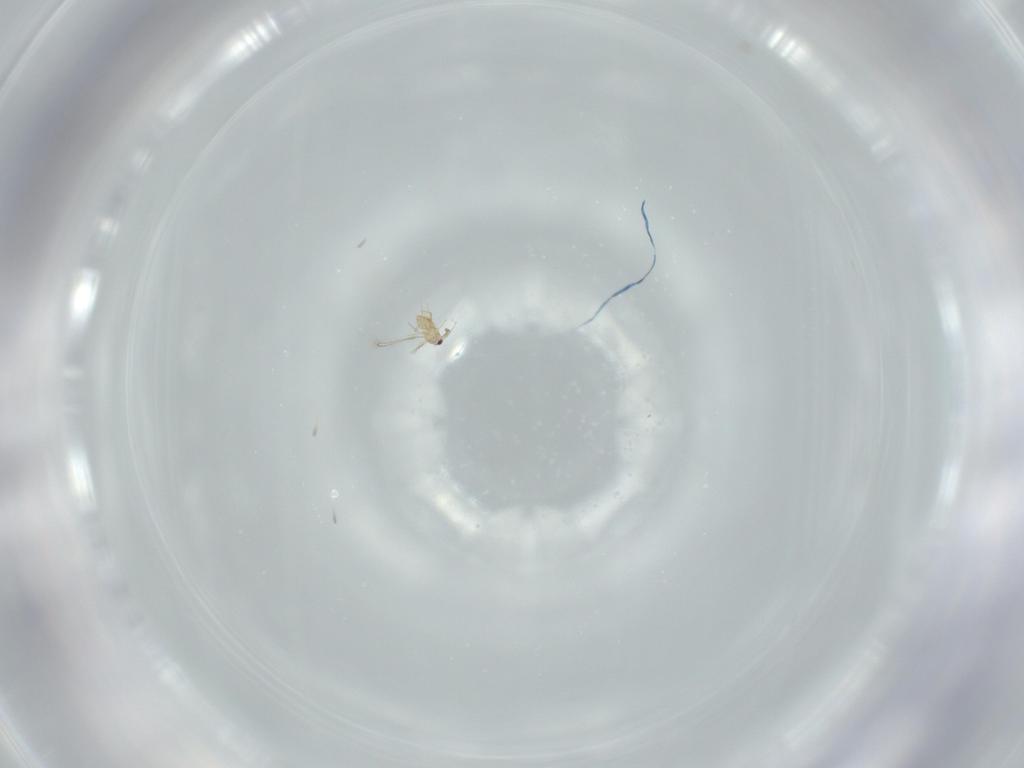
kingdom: Animalia
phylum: Arthropoda
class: Insecta
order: Hymenoptera
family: Mymaridae
